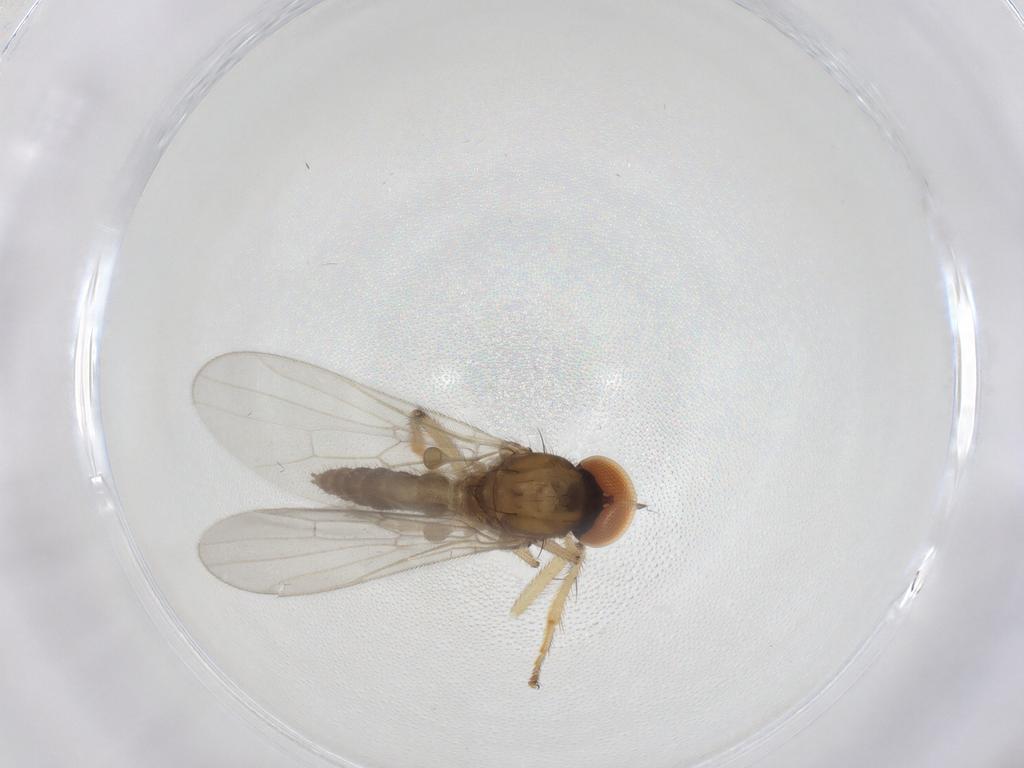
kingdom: Animalia
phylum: Arthropoda
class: Insecta
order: Diptera
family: Hybotidae
